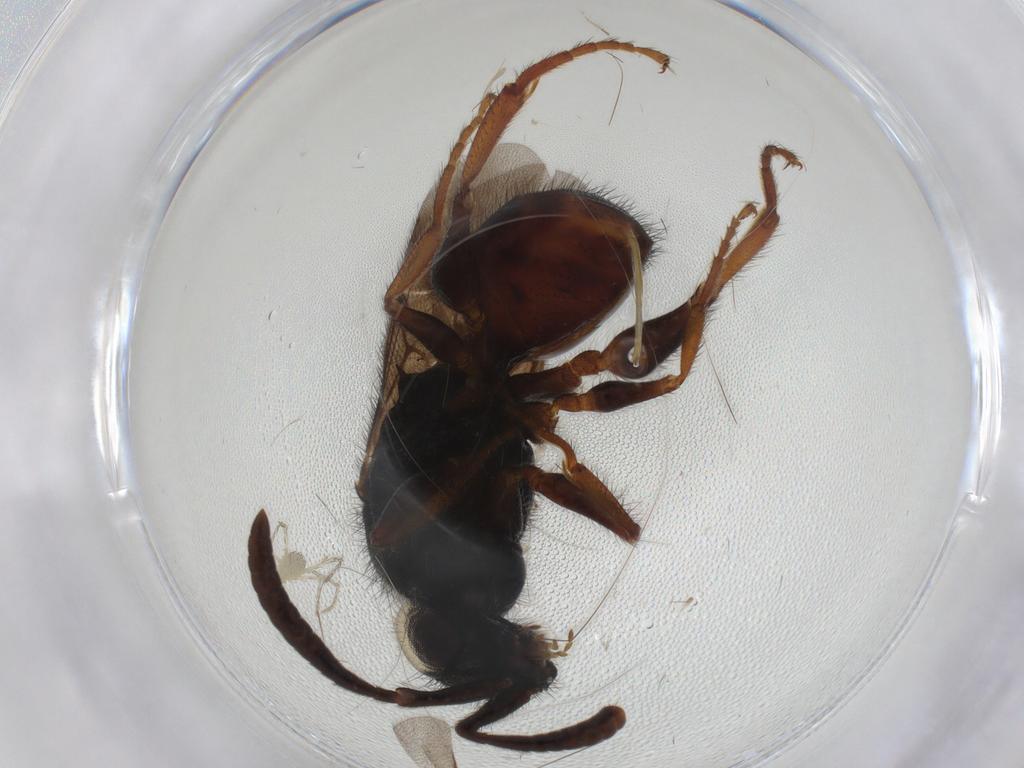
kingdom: Animalia
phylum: Arthropoda
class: Insecta
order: Hymenoptera
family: Chrysididae
